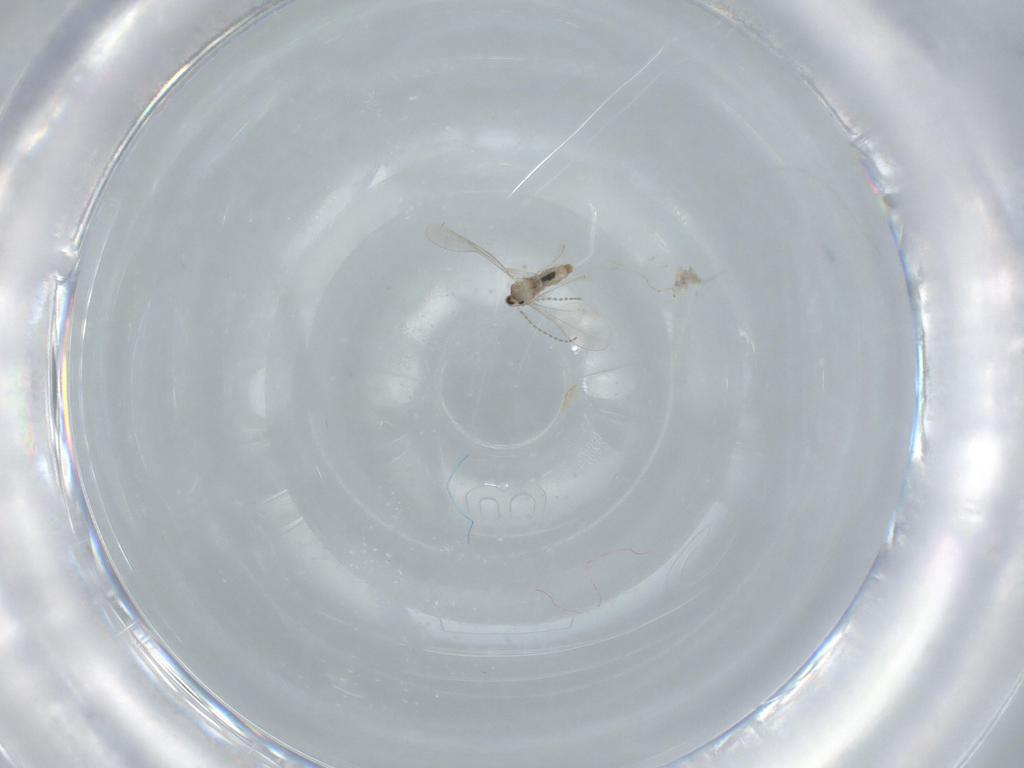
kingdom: Animalia
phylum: Arthropoda
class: Insecta
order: Diptera
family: Cecidomyiidae
